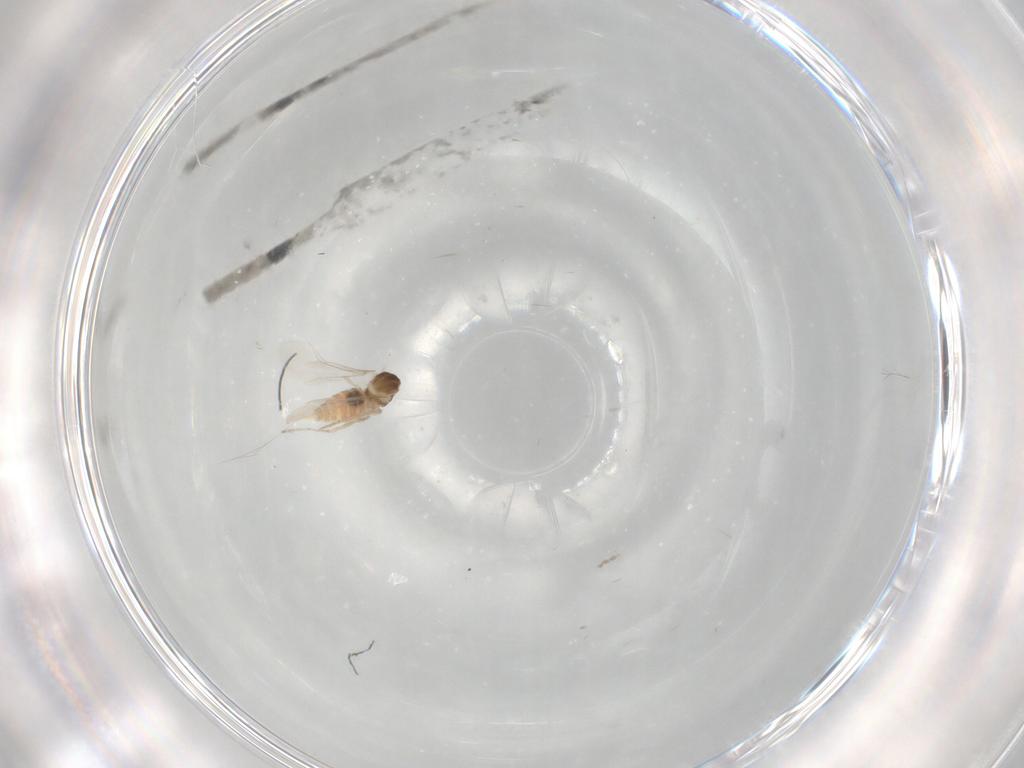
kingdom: Animalia
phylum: Arthropoda
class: Insecta
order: Diptera
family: Cecidomyiidae
